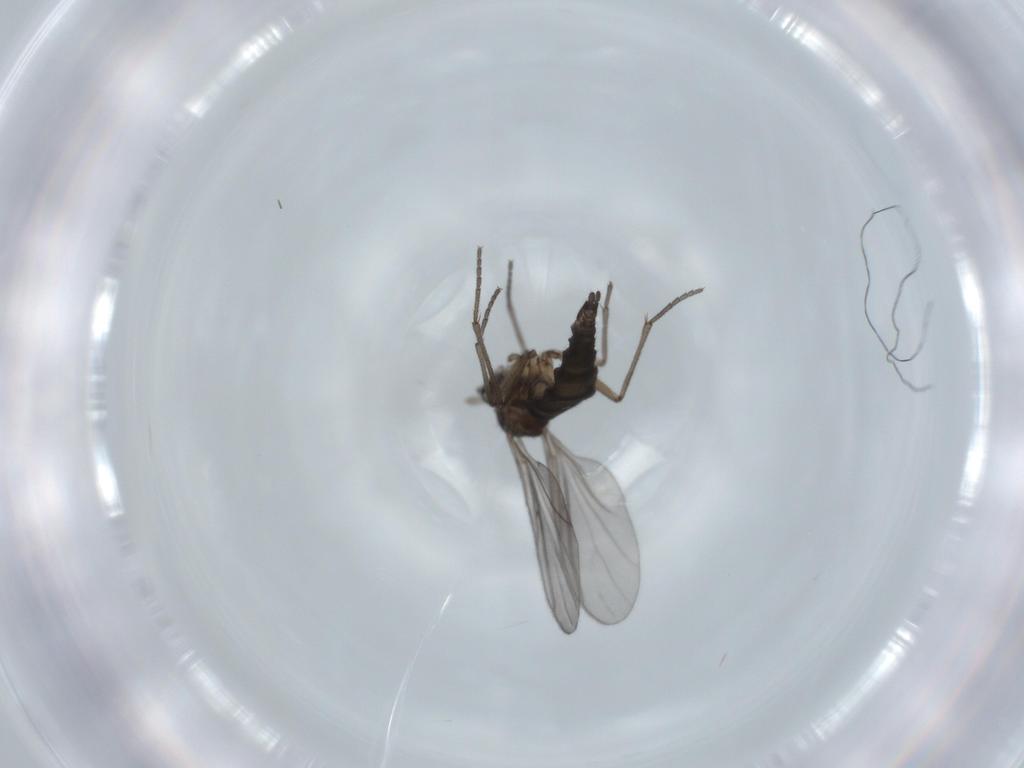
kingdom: Animalia
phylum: Arthropoda
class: Insecta
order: Diptera
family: Sciaridae
